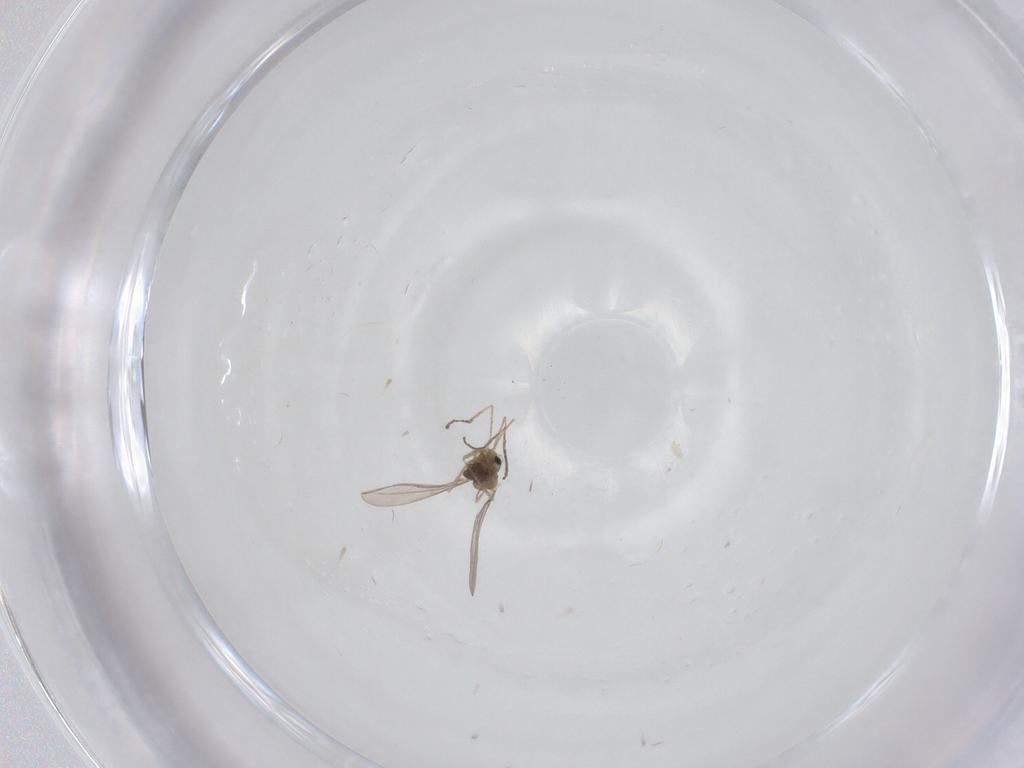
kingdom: Animalia
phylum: Arthropoda
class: Insecta
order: Diptera
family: Cecidomyiidae
